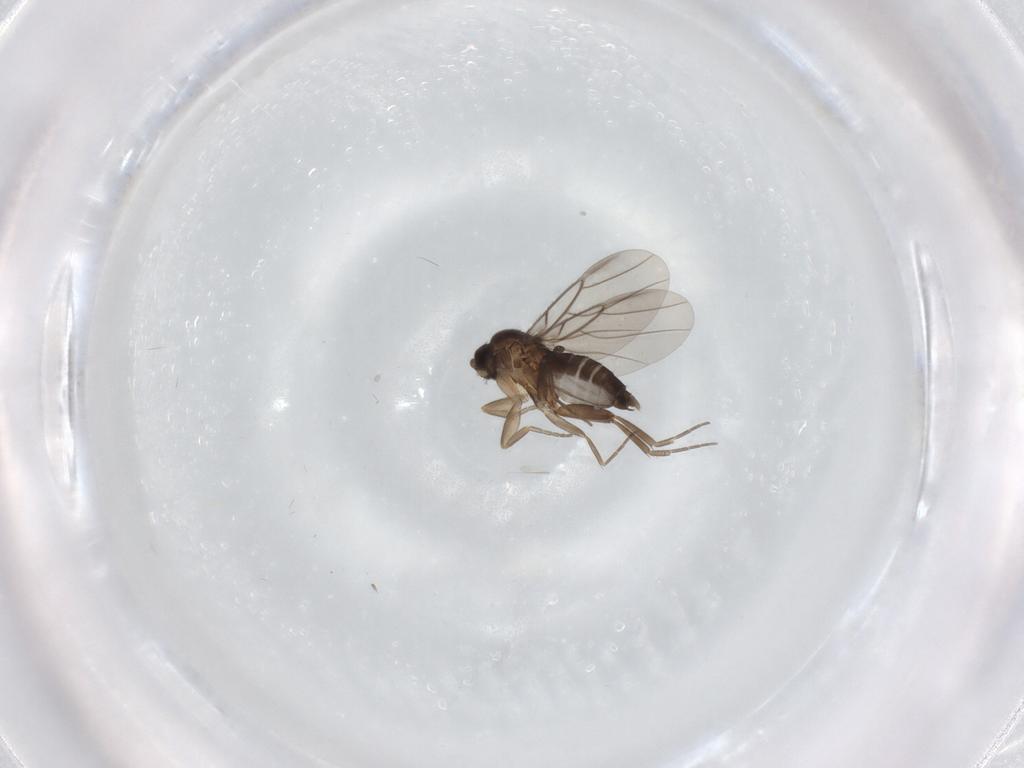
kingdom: Animalia
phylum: Arthropoda
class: Insecta
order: Diptera
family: Phoridae
